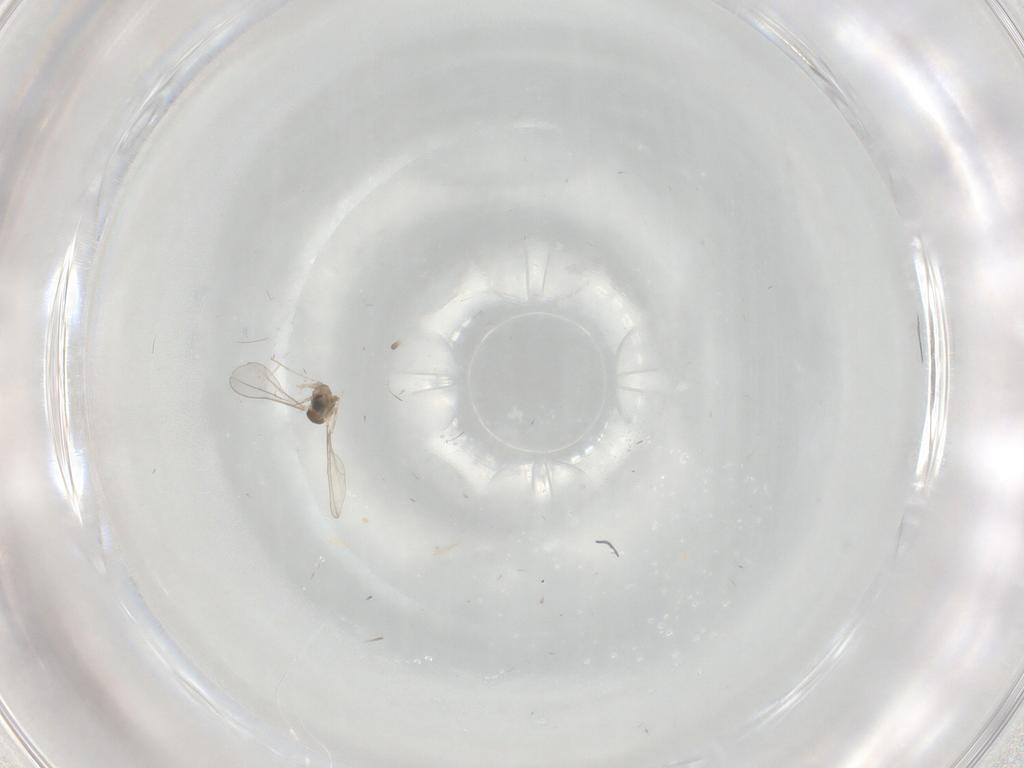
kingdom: Animalia
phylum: Arthropoda
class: Insecta
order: Diptera
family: Cecidomyiidae
